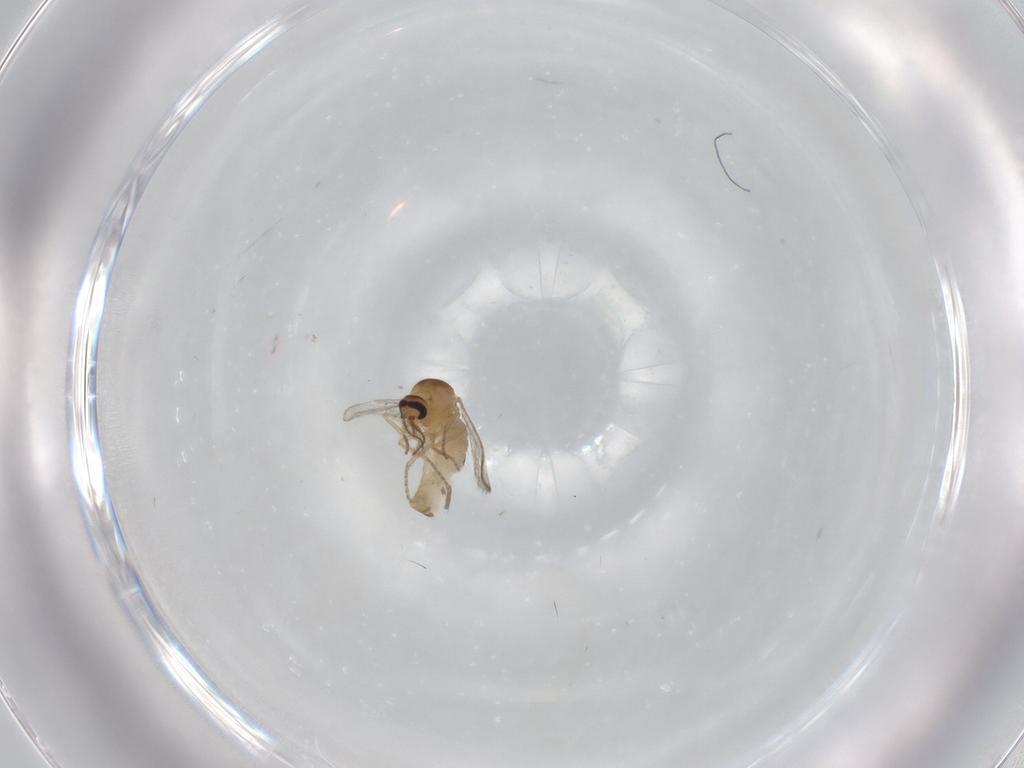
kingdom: Animalia
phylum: Arthropoda
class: Insecta
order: Diptera
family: Ceratopogonidae
